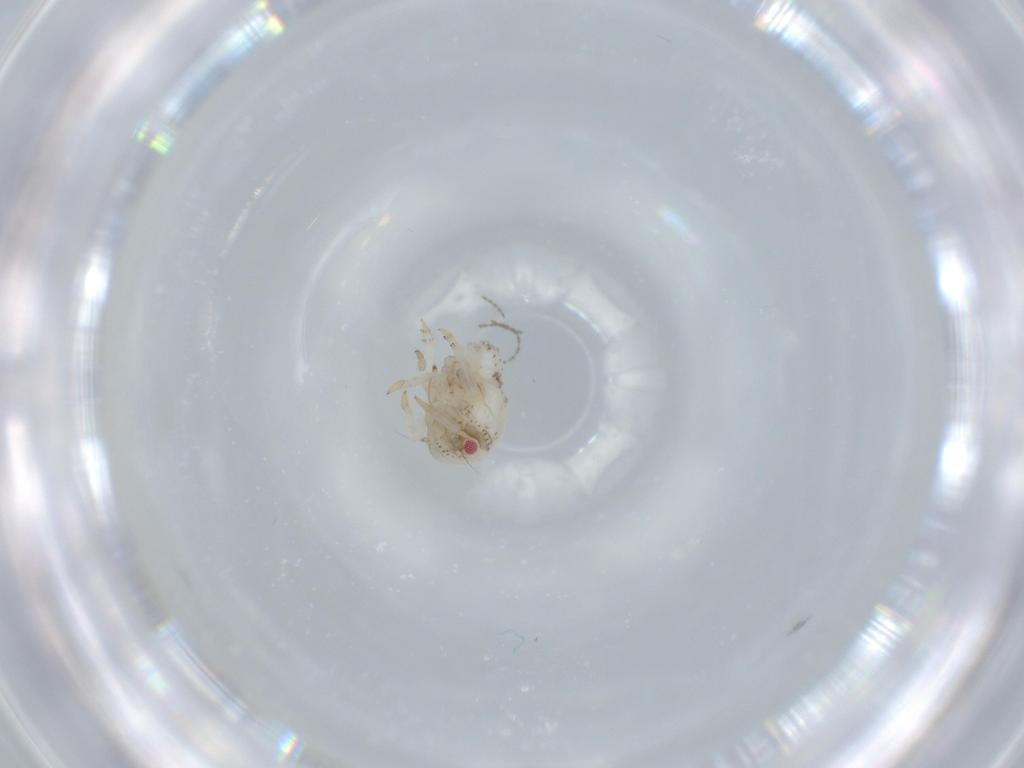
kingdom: Animalia
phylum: Arthropoda
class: Insecta
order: Hemiptera
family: Acanaloniidae
